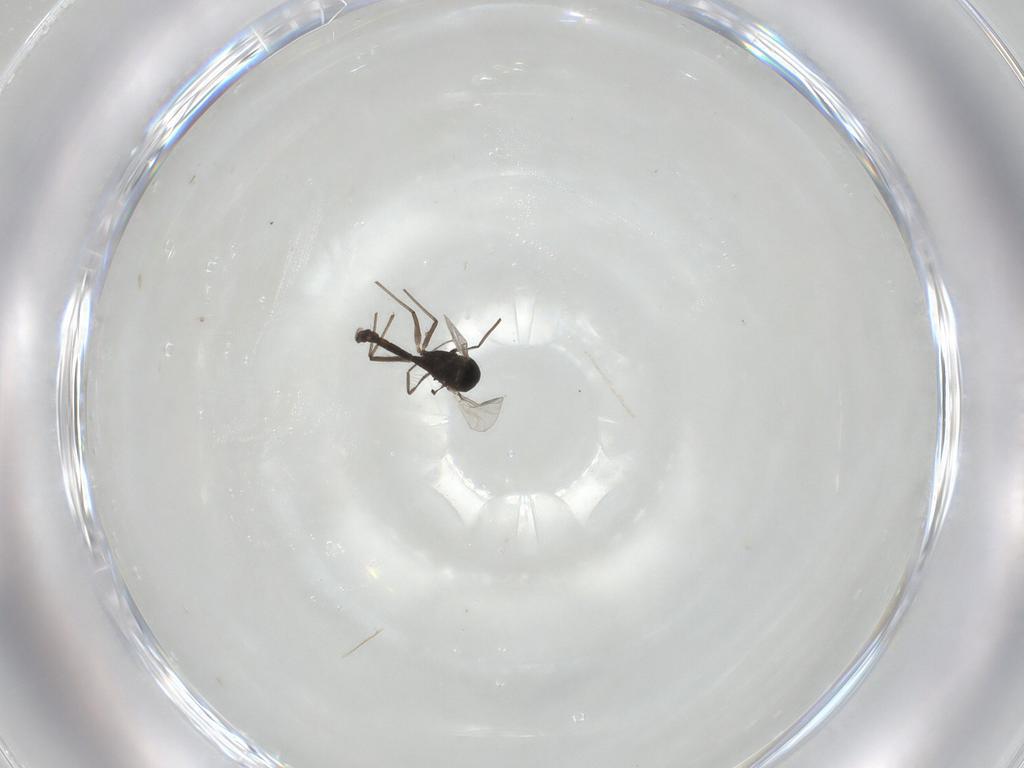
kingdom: Animalia
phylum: Arthropoda
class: Insecta
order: Diptera
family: Ceratopogonidae
